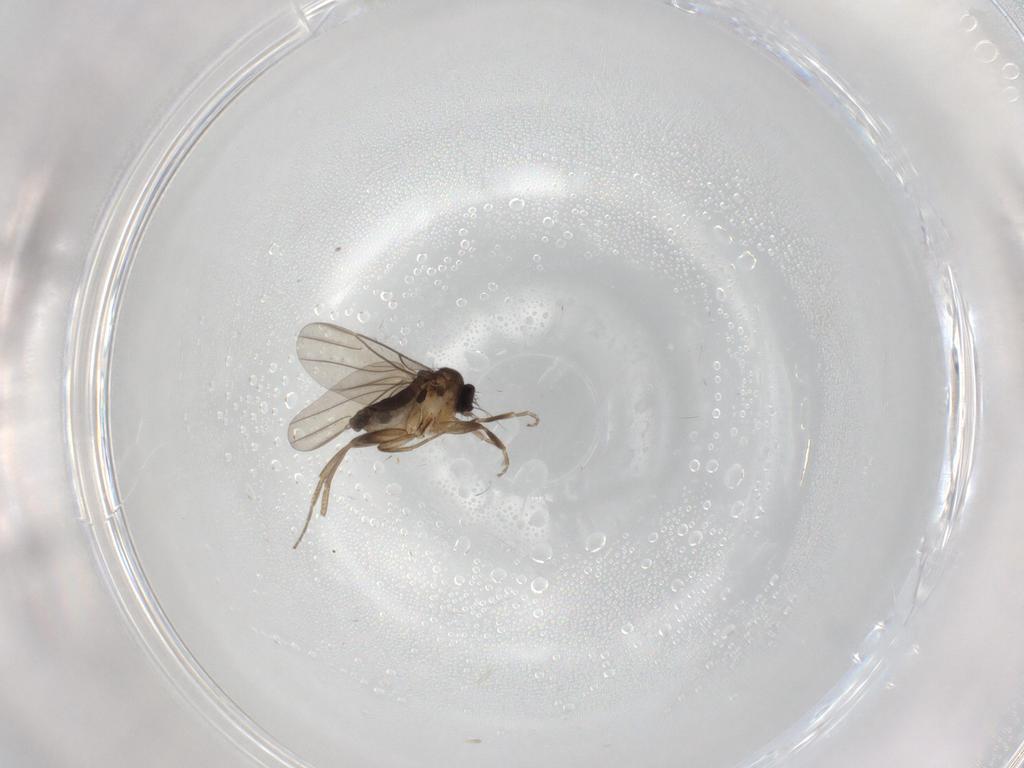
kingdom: Animalia
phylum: Arthropoda
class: Insecta
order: Diptera
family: Phoridae
